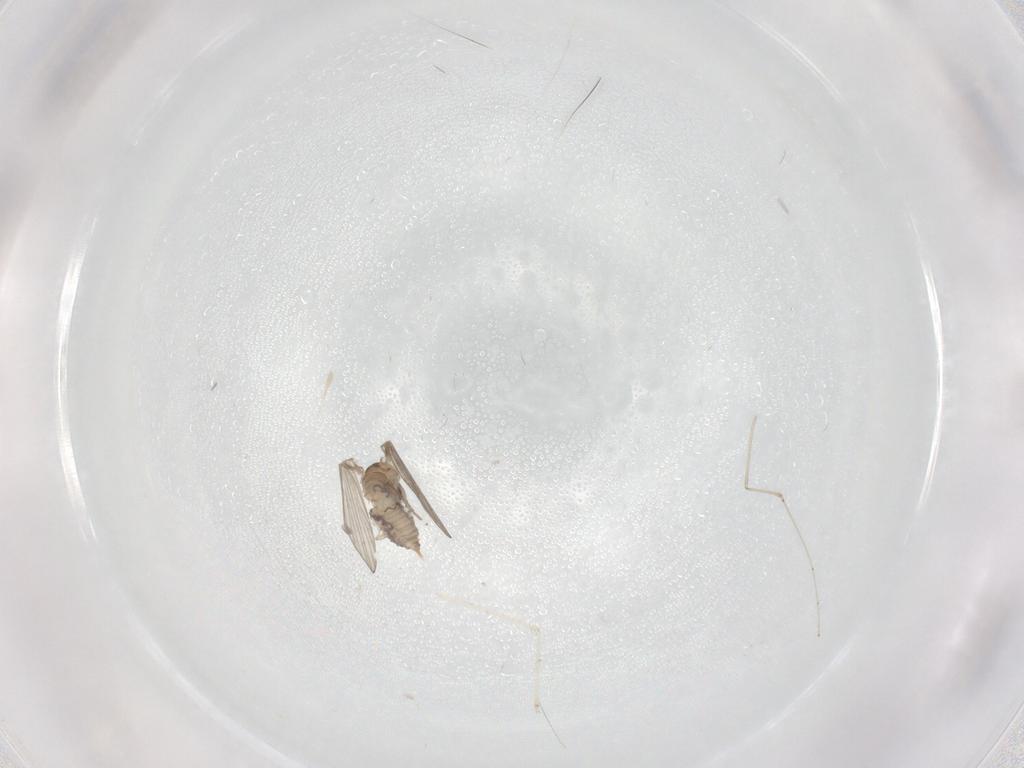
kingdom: Animalia
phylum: Arthropoda
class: Insecta
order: Diptera
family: Psychodidae
